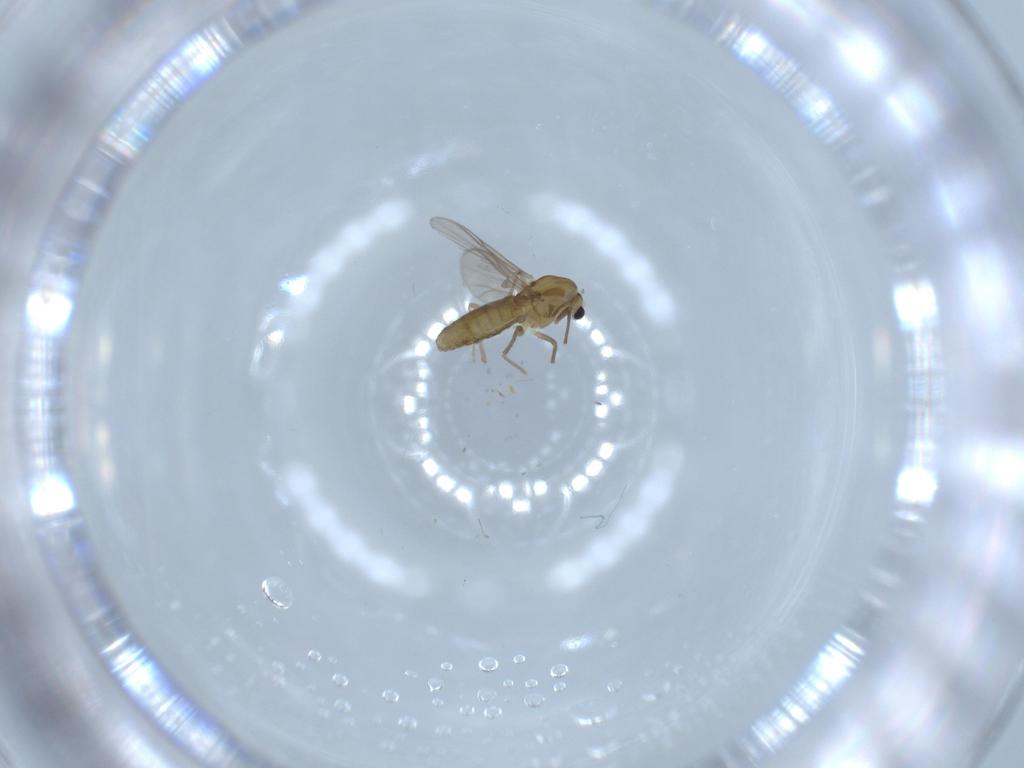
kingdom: Animalia
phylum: Arthropoda
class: Insecta
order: Diptera
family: Chironomidae
